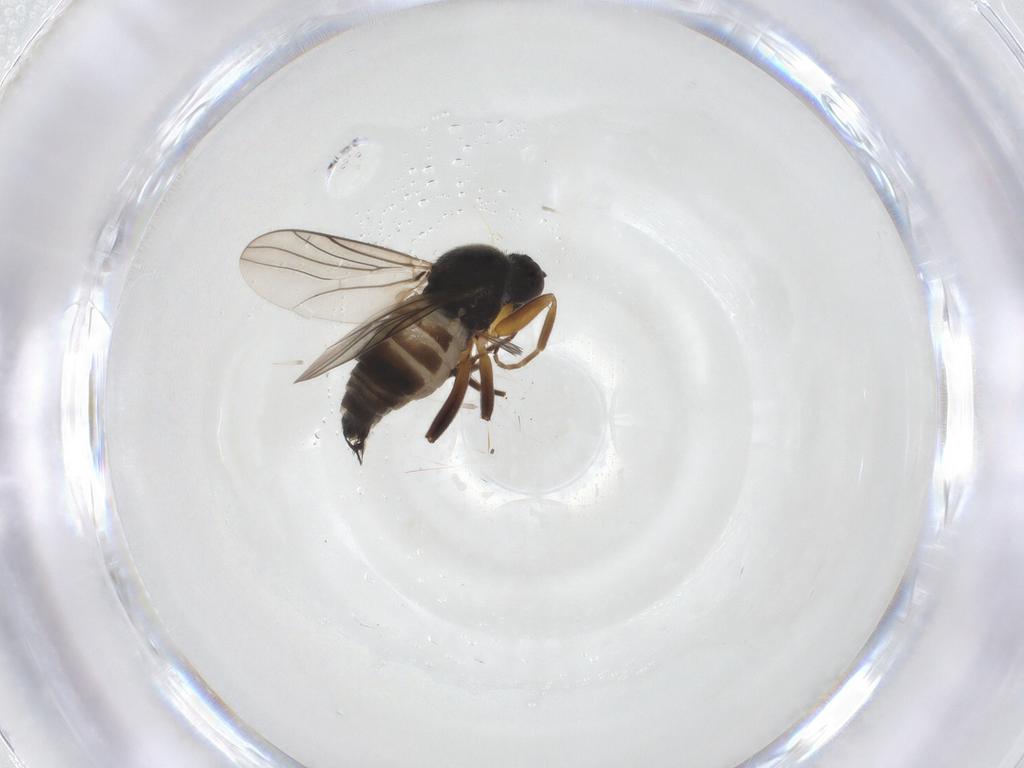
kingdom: Animalia
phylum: Arthropoda
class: Insecta
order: Diptera
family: Hybotidae
